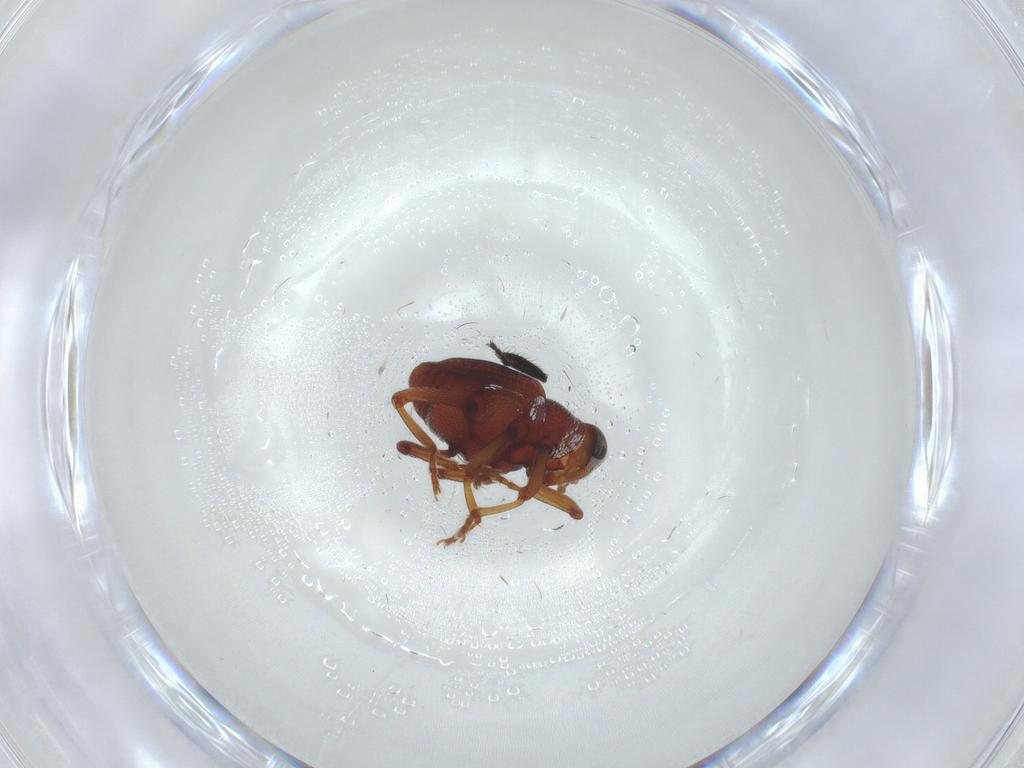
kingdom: Animalia
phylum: Arthropoda
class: Insecta
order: Coleoptera
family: Curculionidae
